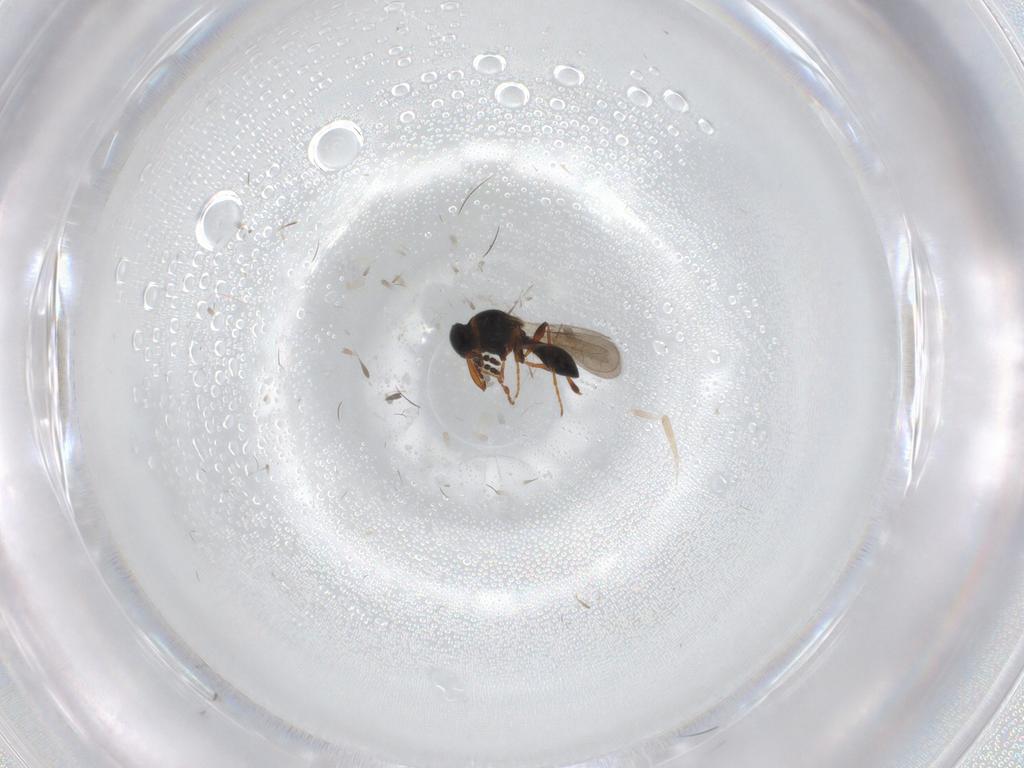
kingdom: Animalia
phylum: Arthropoda
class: Insecta
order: Hymenoptera
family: Platygastridae
